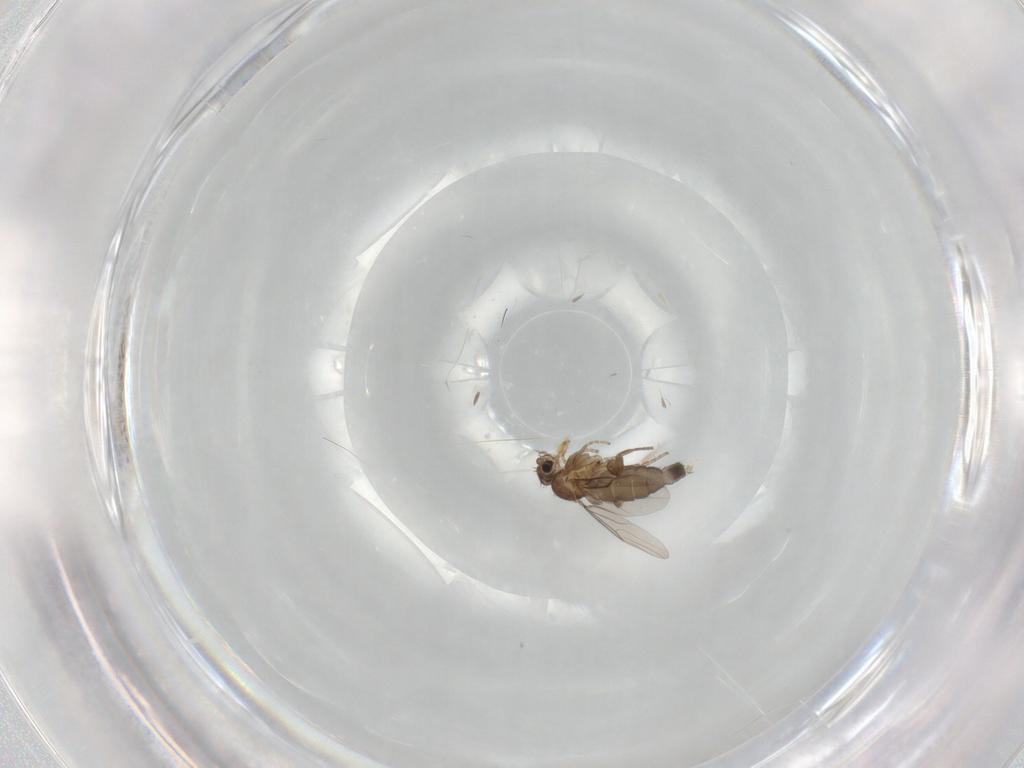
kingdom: Animalia
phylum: Arthropoda
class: Insecta
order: Diptera
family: Phoridae
